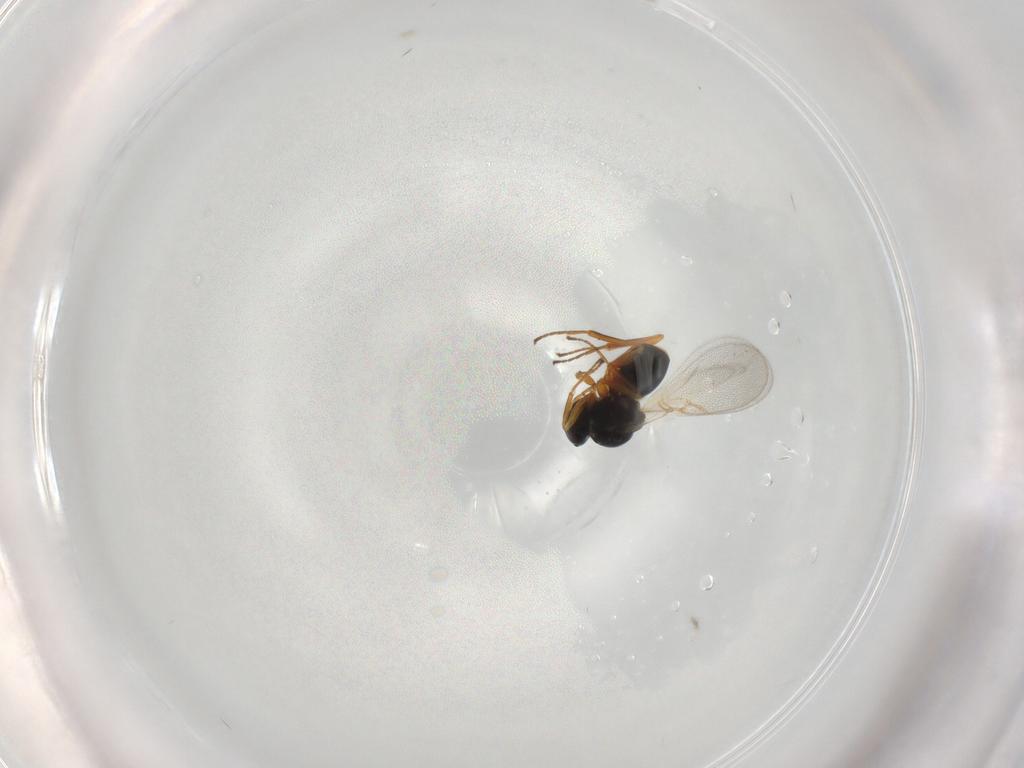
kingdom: Animalia
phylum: Arthropoda
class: Insecta
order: Hymenoptera
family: Figitidae
